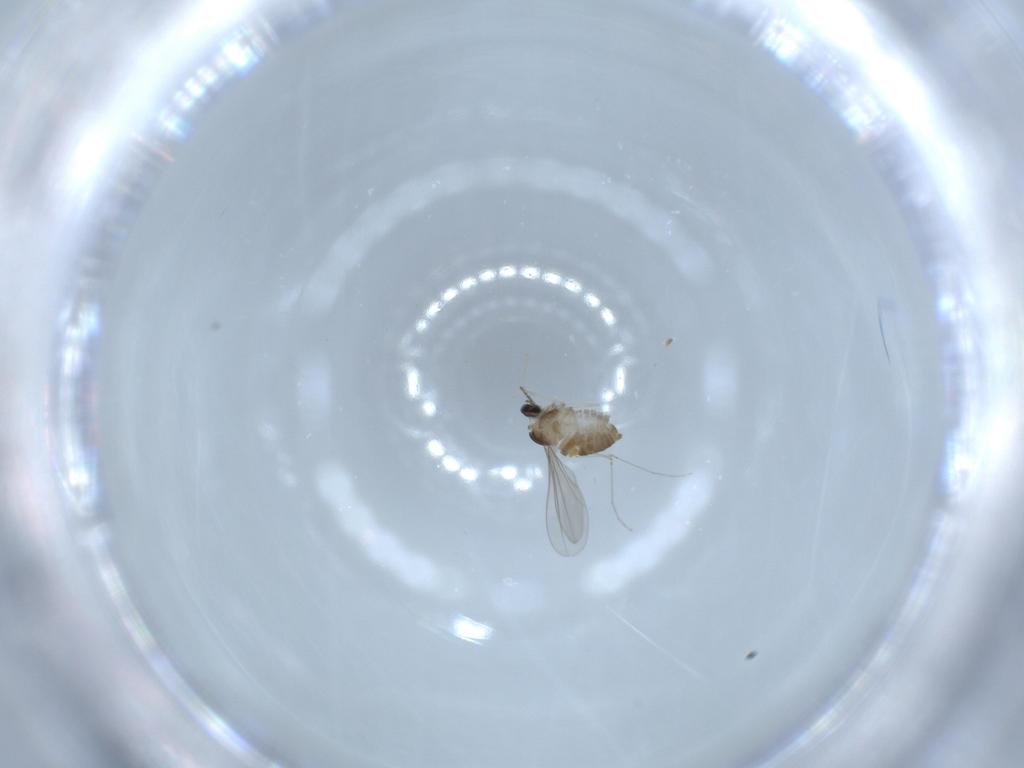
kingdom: Animalia
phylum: Arthropoda
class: Insecta
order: Diptera
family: Cecidomyiidae
